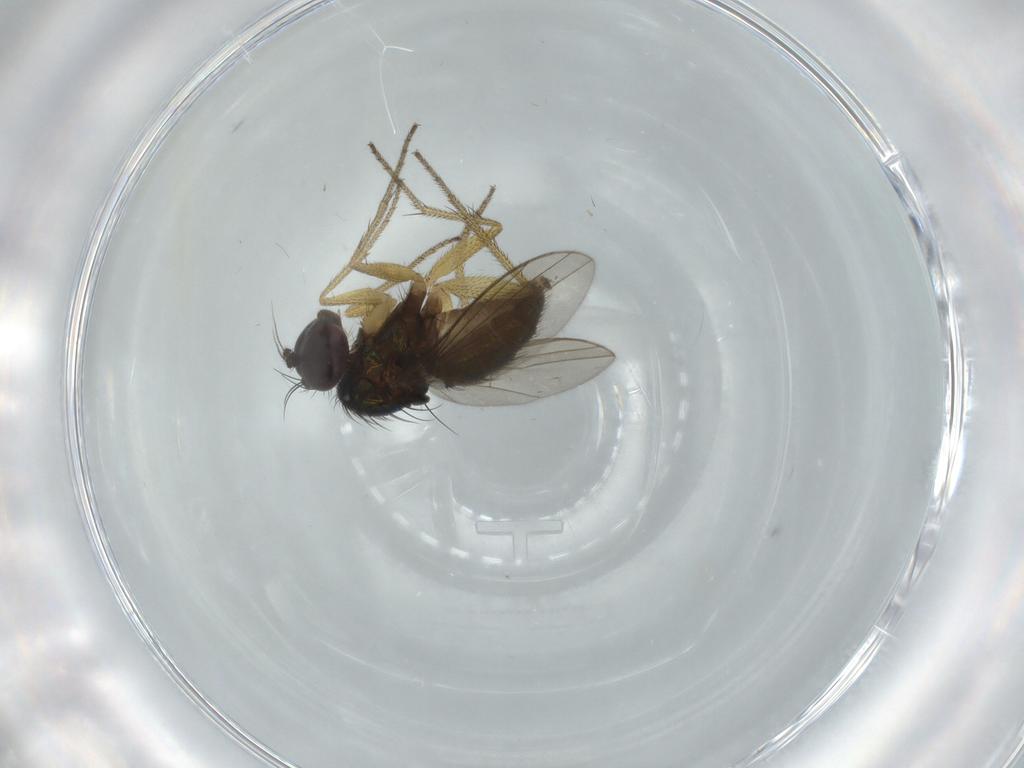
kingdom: Animalia
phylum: Arthropoda
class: Insecta
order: Diptera
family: Dolichopodidae
